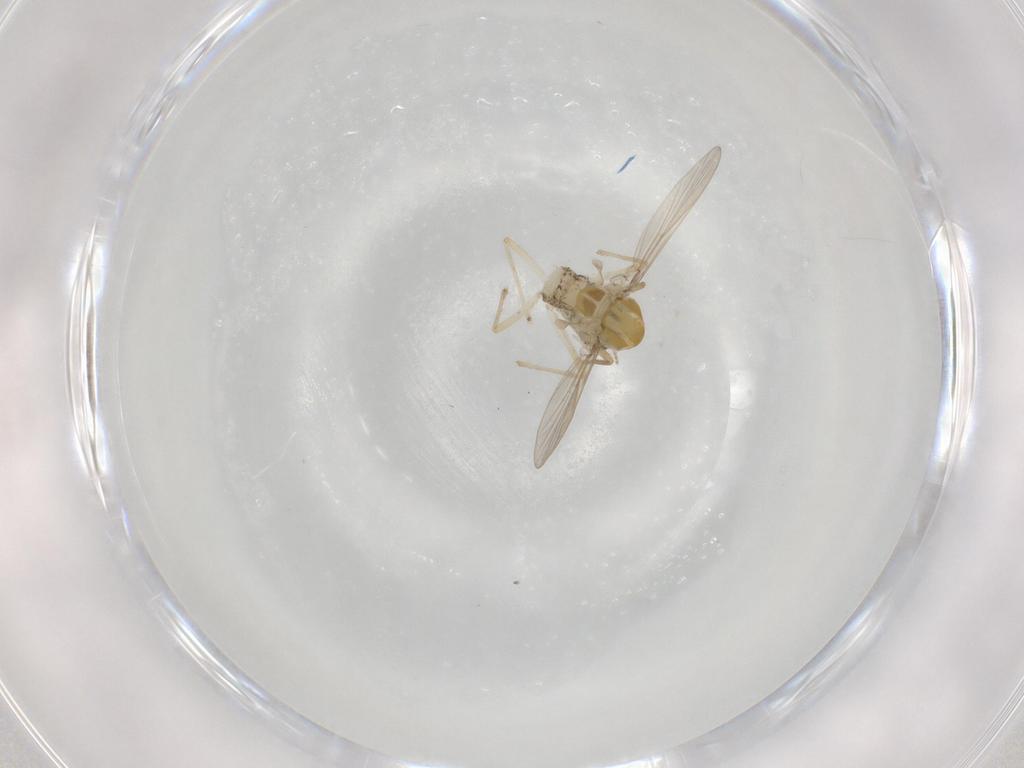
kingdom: Animalia
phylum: Arthropoda
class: Insecta
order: Diptera
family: Chironomidae
